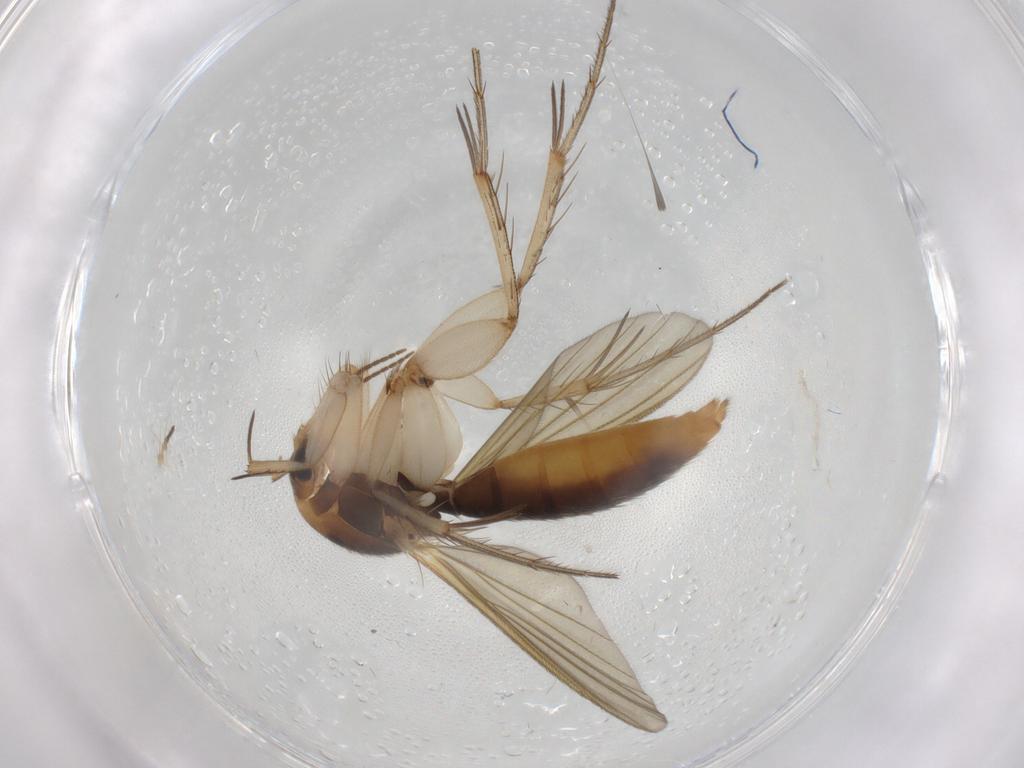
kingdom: Animalia
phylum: Arthropoda
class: Insecta
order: Diptera
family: Mycetophilidae
